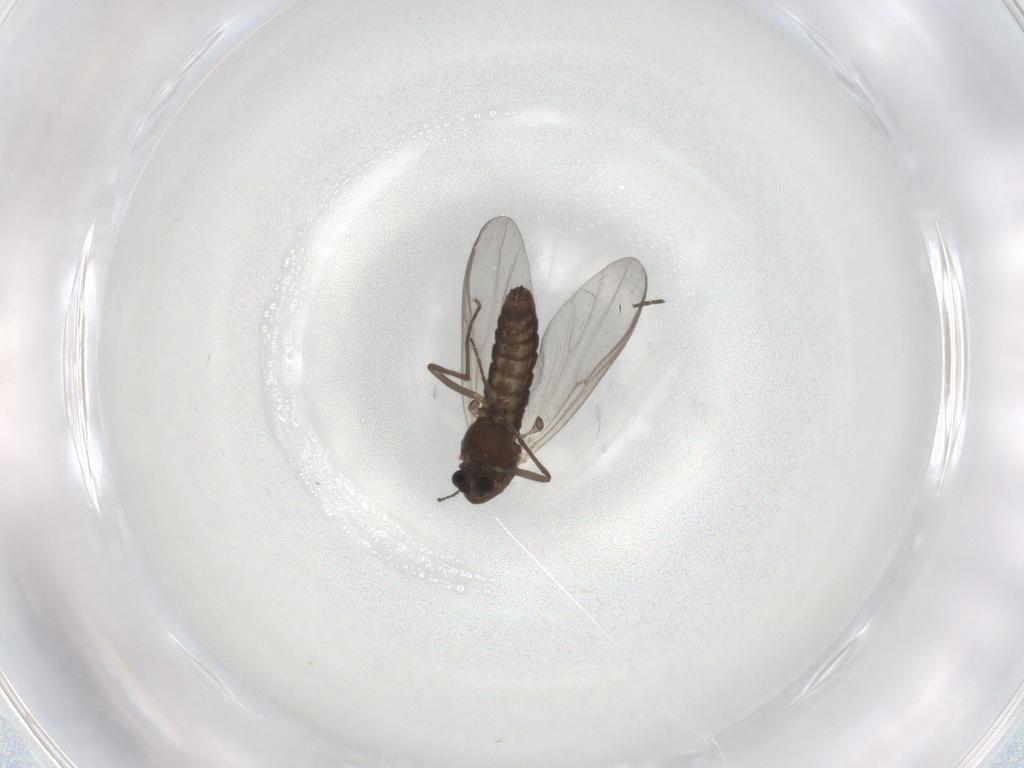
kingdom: Animalia
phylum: Arthropoda
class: Insecta
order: Diptera
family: Chironomidae
